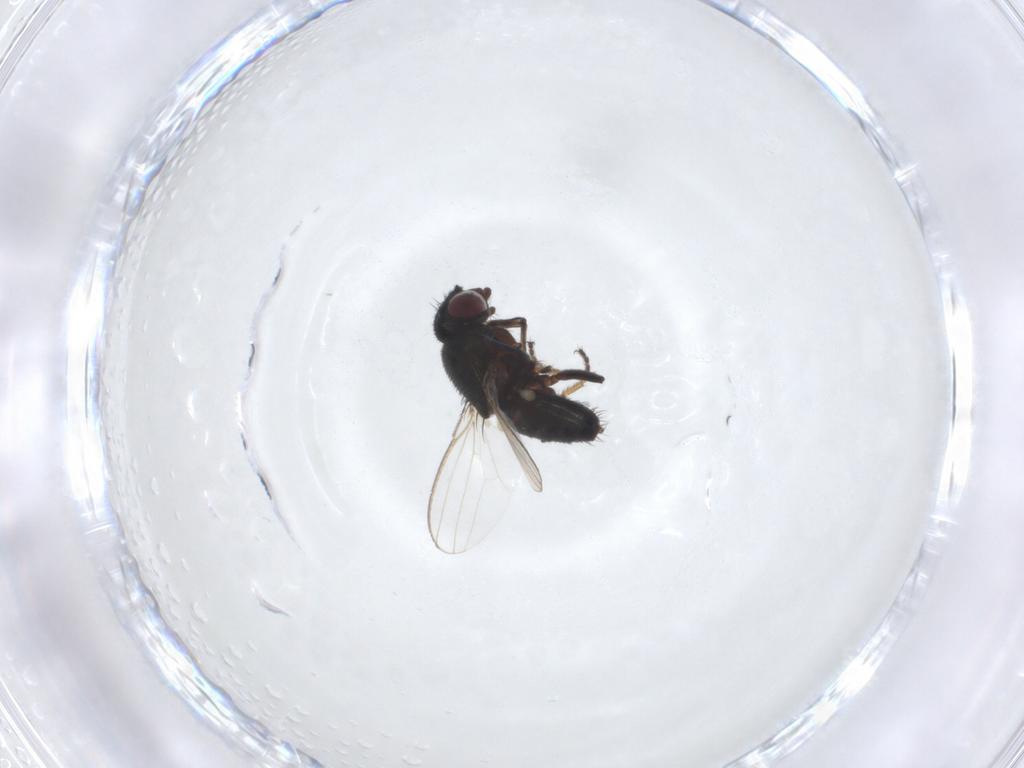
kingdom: Animalia
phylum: Arthropoda
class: Insecta
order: Diptera
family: Milichiidae
